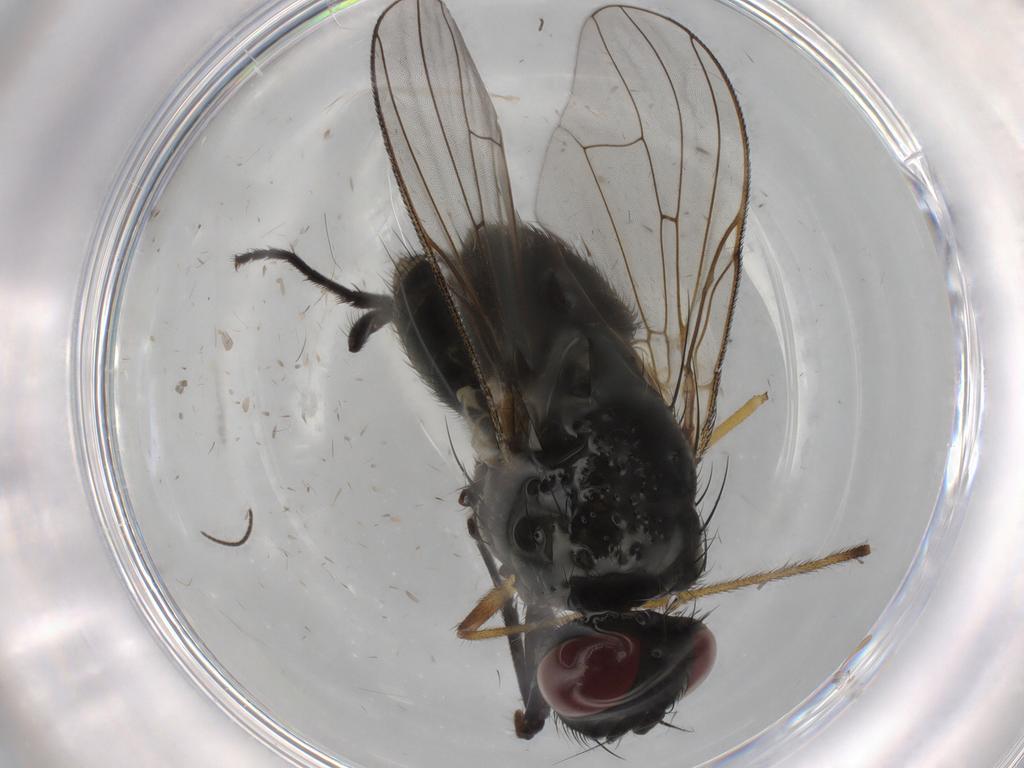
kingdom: Animalia
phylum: Arthropoda
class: Insecta
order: Diptera
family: Muscidae
